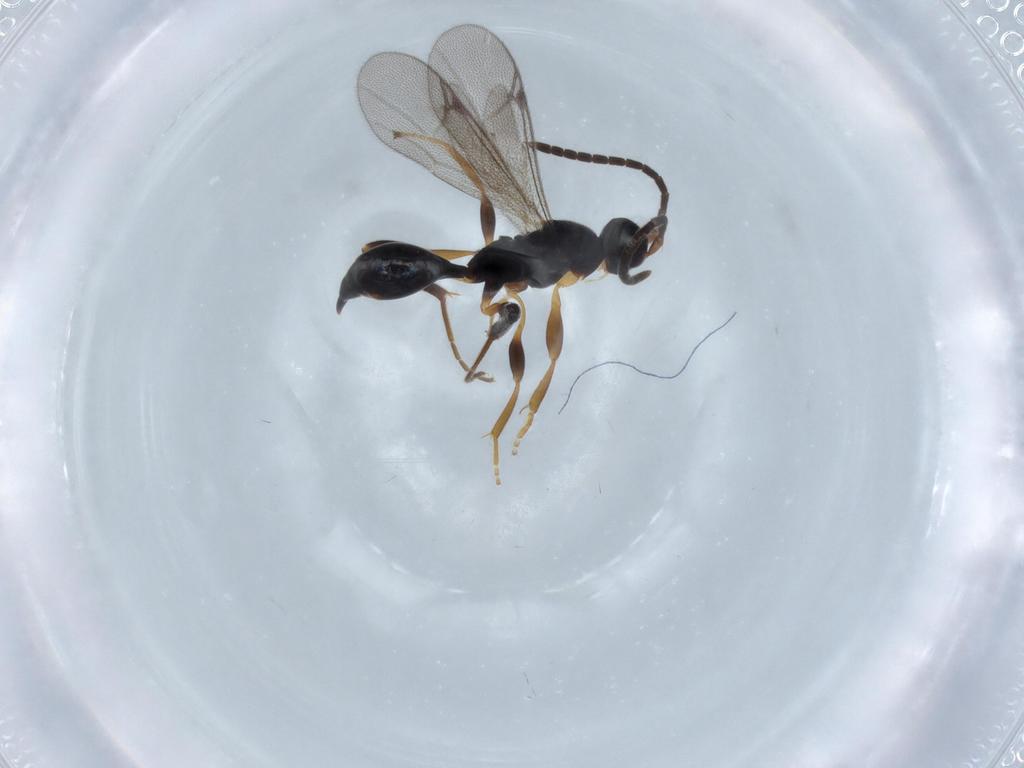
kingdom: Animalia
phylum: Arthropoda
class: Insecta
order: Hymenoptera
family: Proctotrupidae
